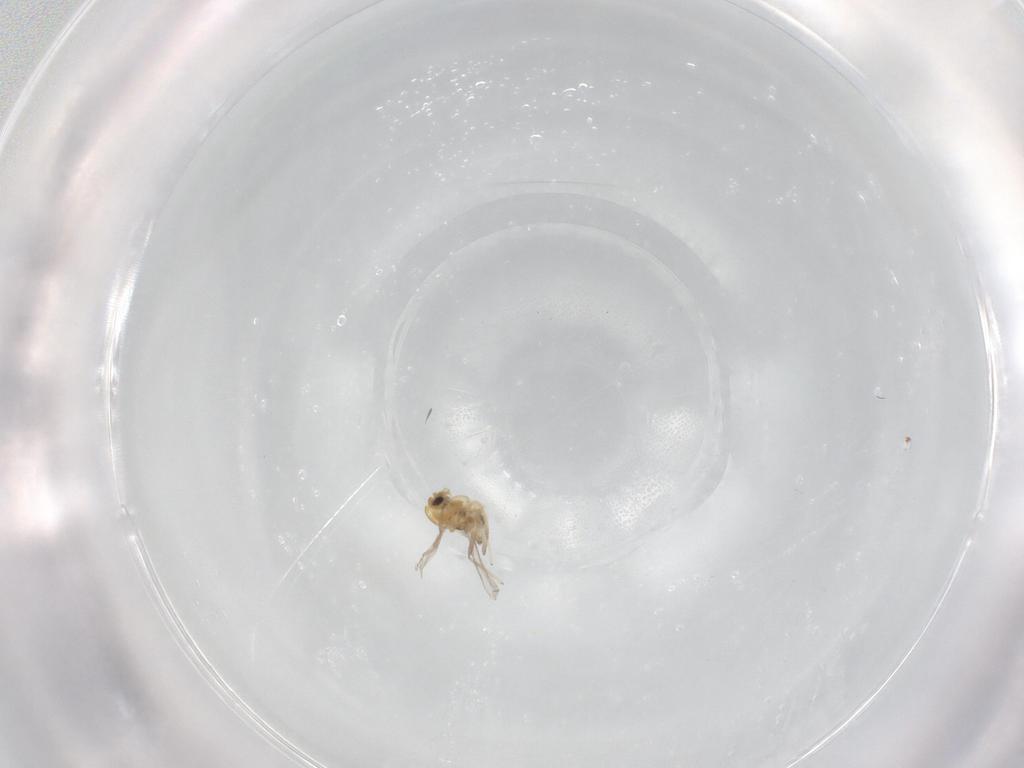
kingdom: Animalia
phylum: Arthropoda
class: Insecta
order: Diptera
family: Chironomidae
